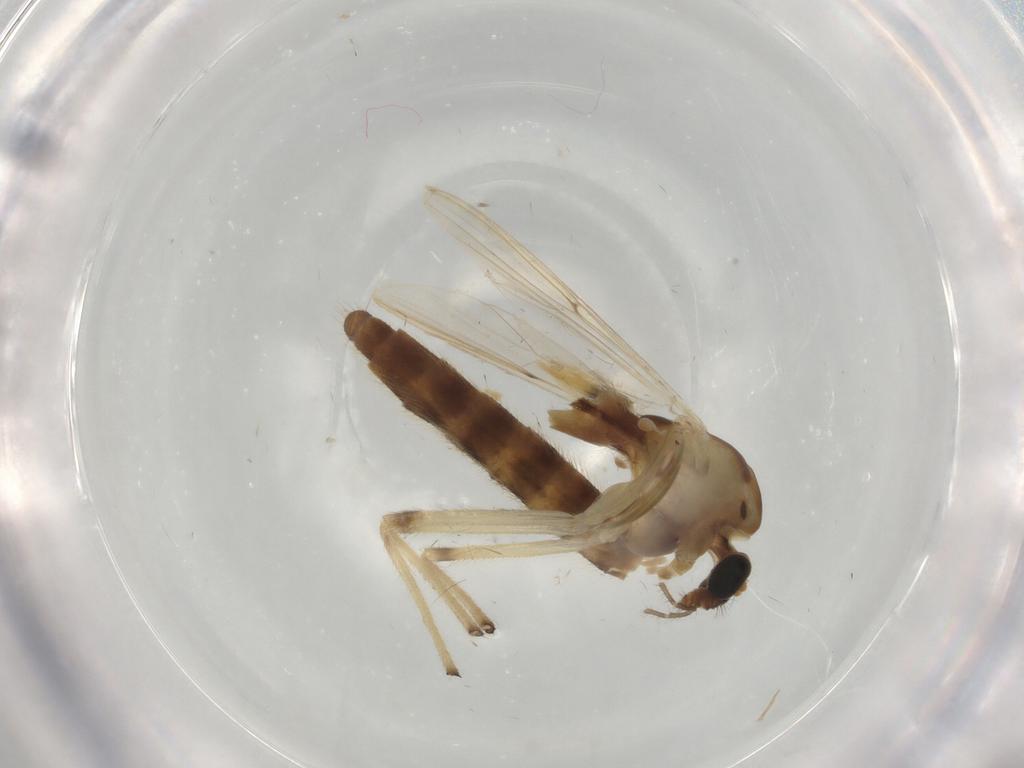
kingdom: Animalia
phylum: Arthropoda
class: Insecta
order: Diptera
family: Chironomidae
